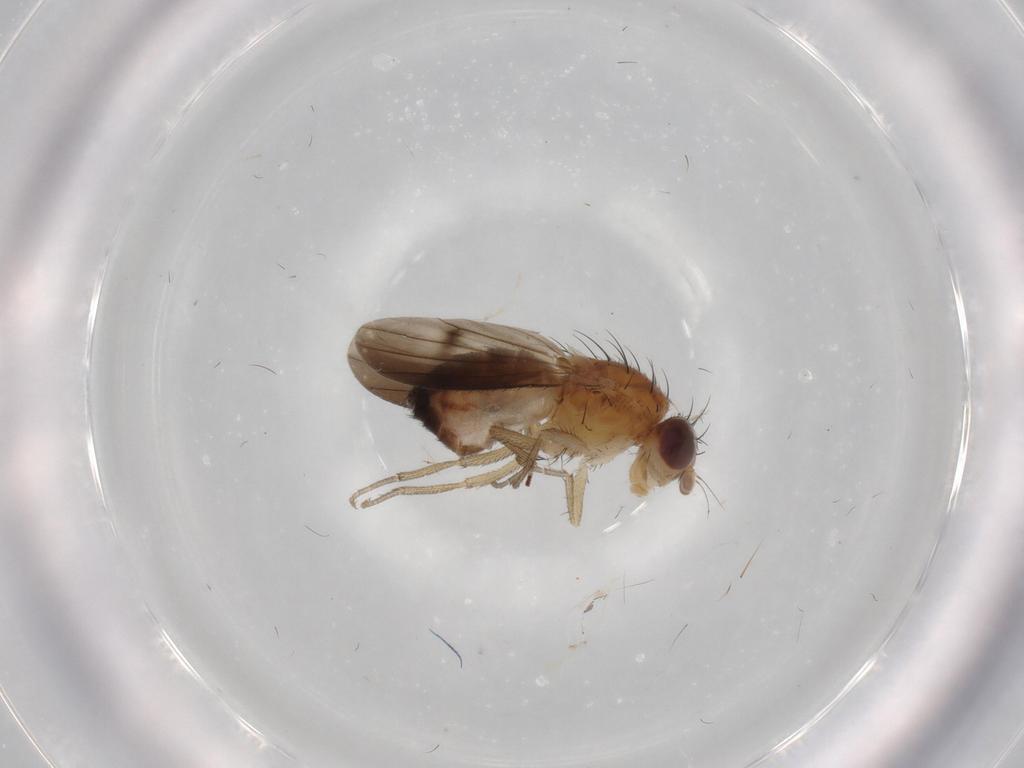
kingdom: Animalia
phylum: Arthropoda
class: Insecta
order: Diptera
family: Heleomyzidae
